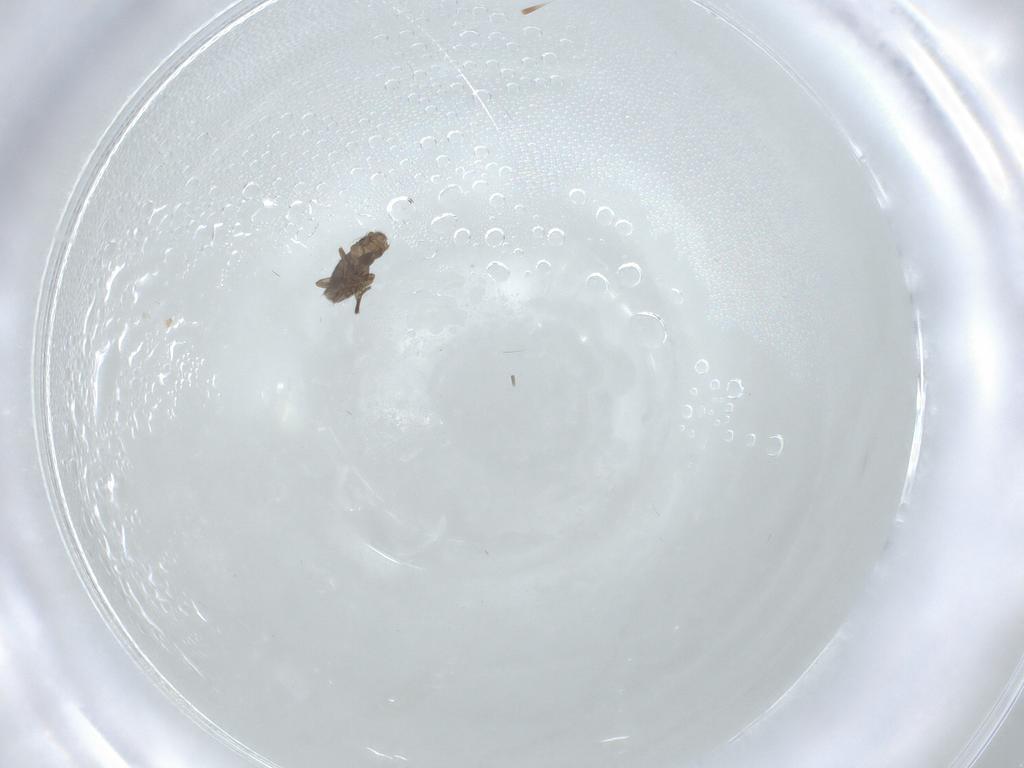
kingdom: Animalia
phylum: Arthropoda
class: Insecta
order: Diptera
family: Phoridae
